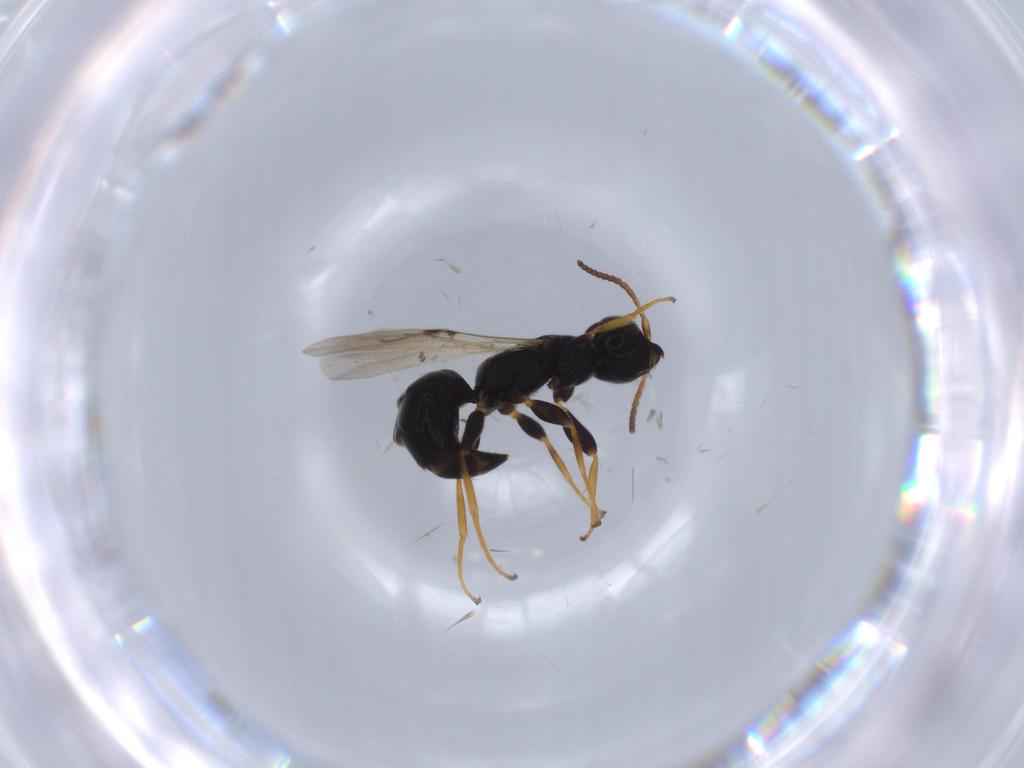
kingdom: Animalia
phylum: Arthropoda
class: Insecta
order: Hymenoptera
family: Bethylidae
